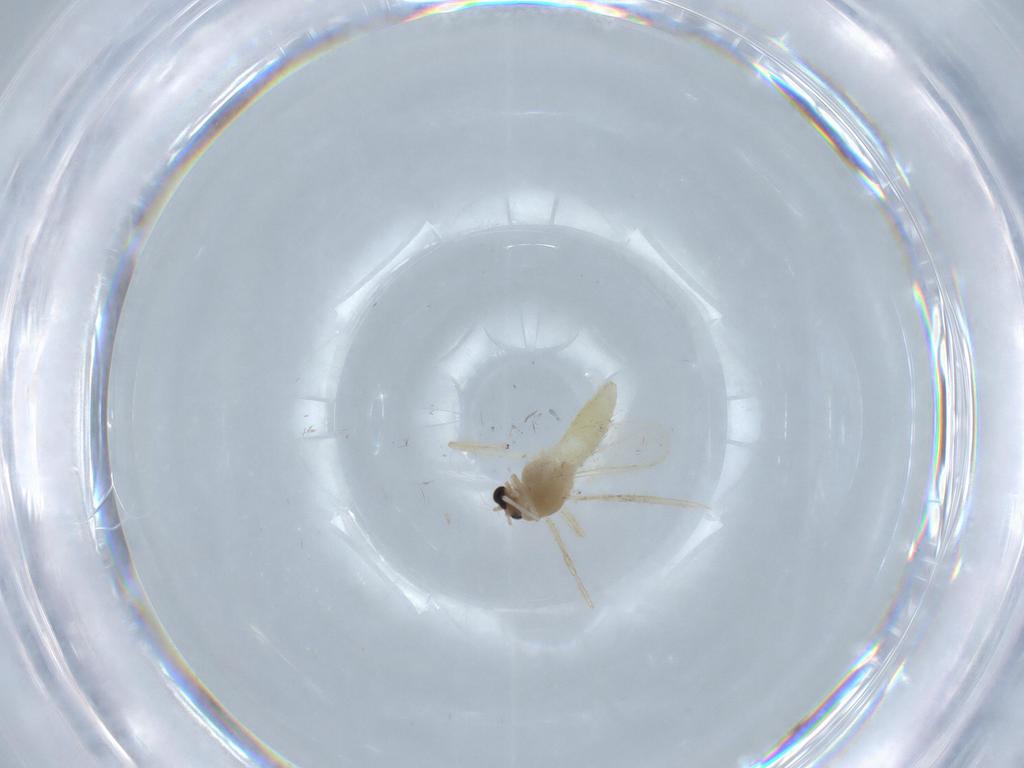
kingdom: Animalia
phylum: Arthropoda
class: Insecta
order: Diptera
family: Chironomidae
